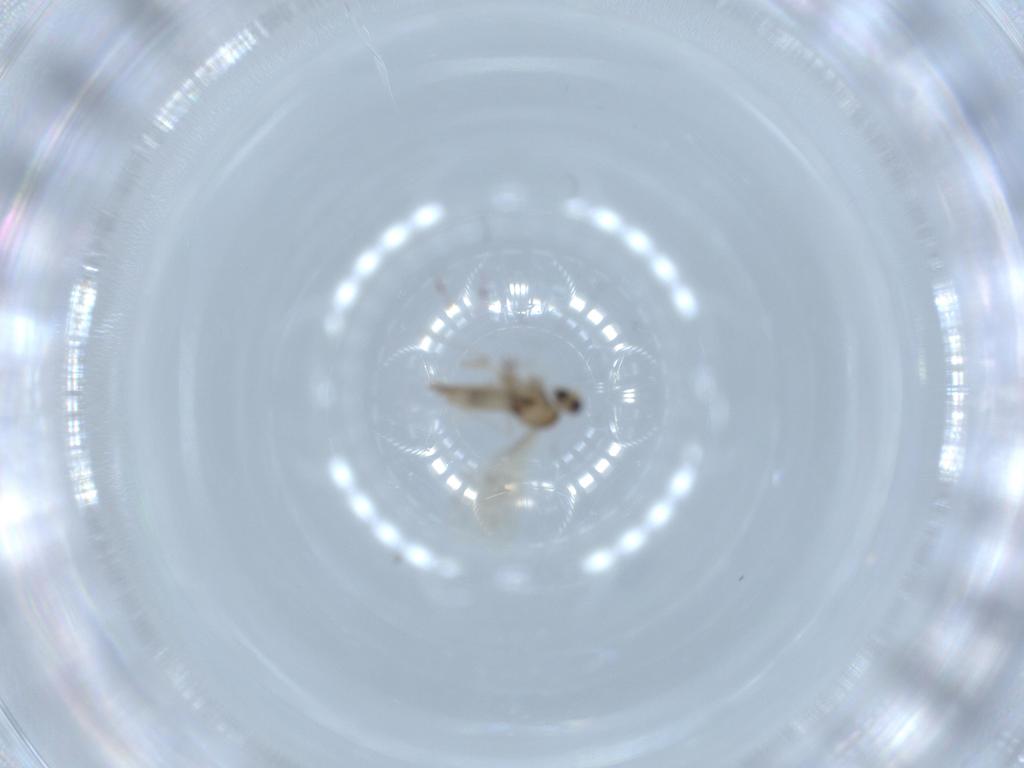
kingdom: Animalia
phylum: Arthropoda
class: Insecta
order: Diptera
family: Cecidomyiidae
